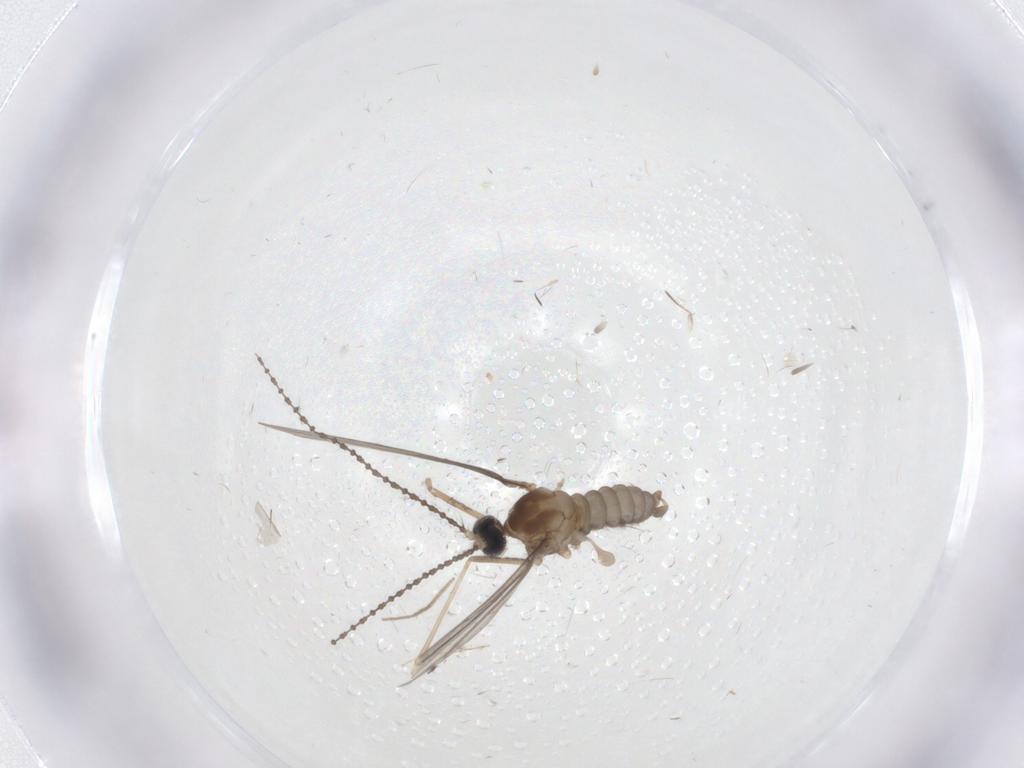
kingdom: Animalia
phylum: Arthropoda
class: Insecta
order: Diptera
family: Cecidomyiidae
